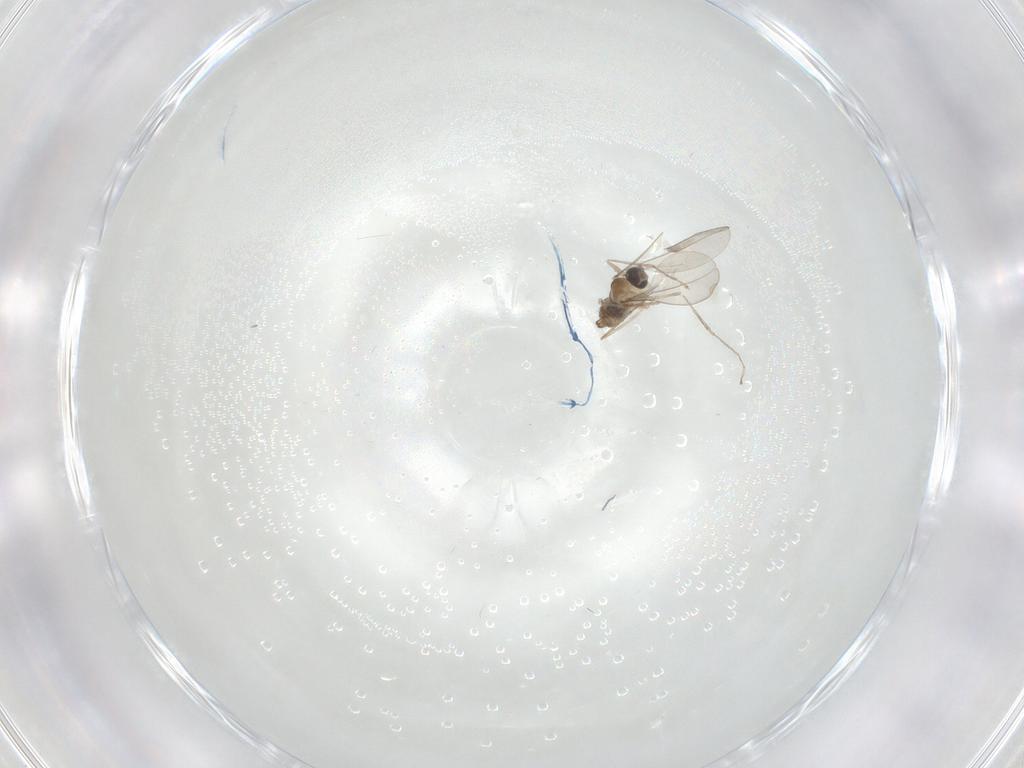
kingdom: Animalia
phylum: Arthropoda
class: Insecta
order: Diptera
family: Cecidomyiidae
